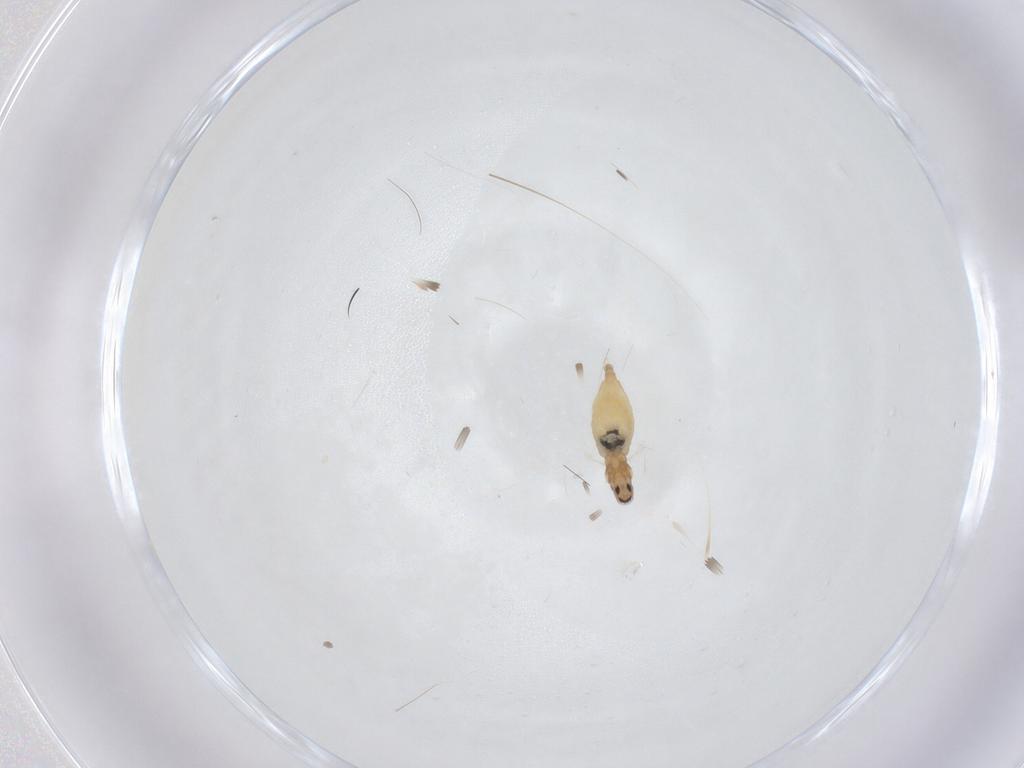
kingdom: Animalia
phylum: Arthropoda
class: Insecta
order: Diptera
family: Cecidomyiidae
